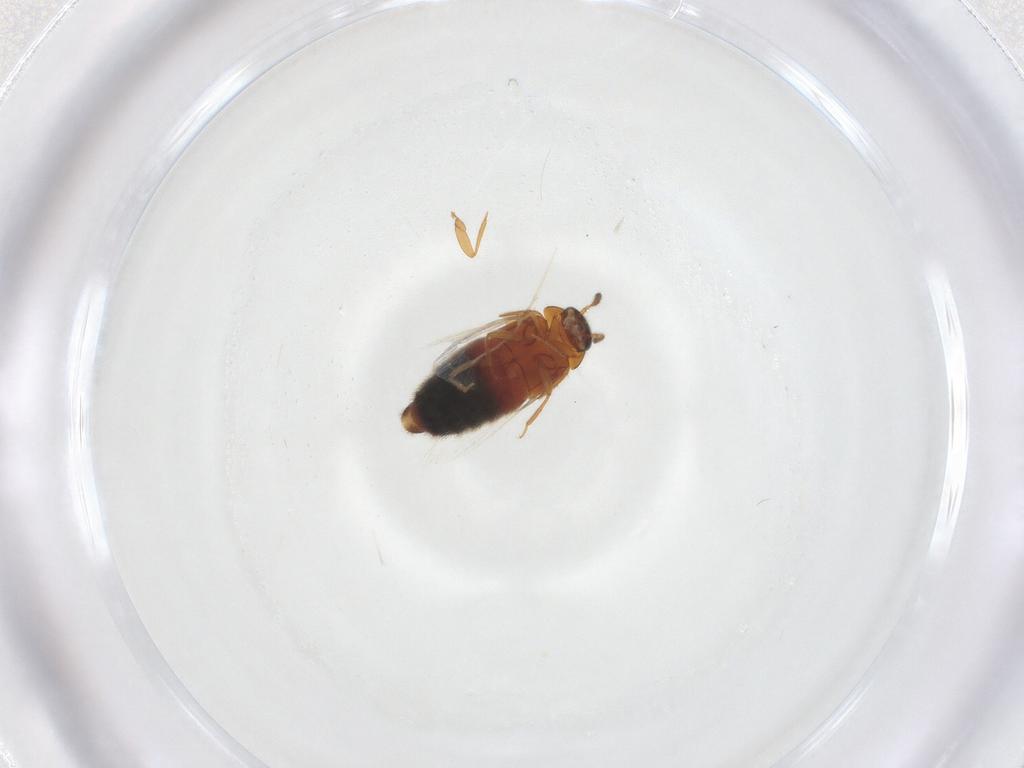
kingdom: Animalia
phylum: Arthropoda
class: Insecta
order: Coleoptera
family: Staphylinidae
